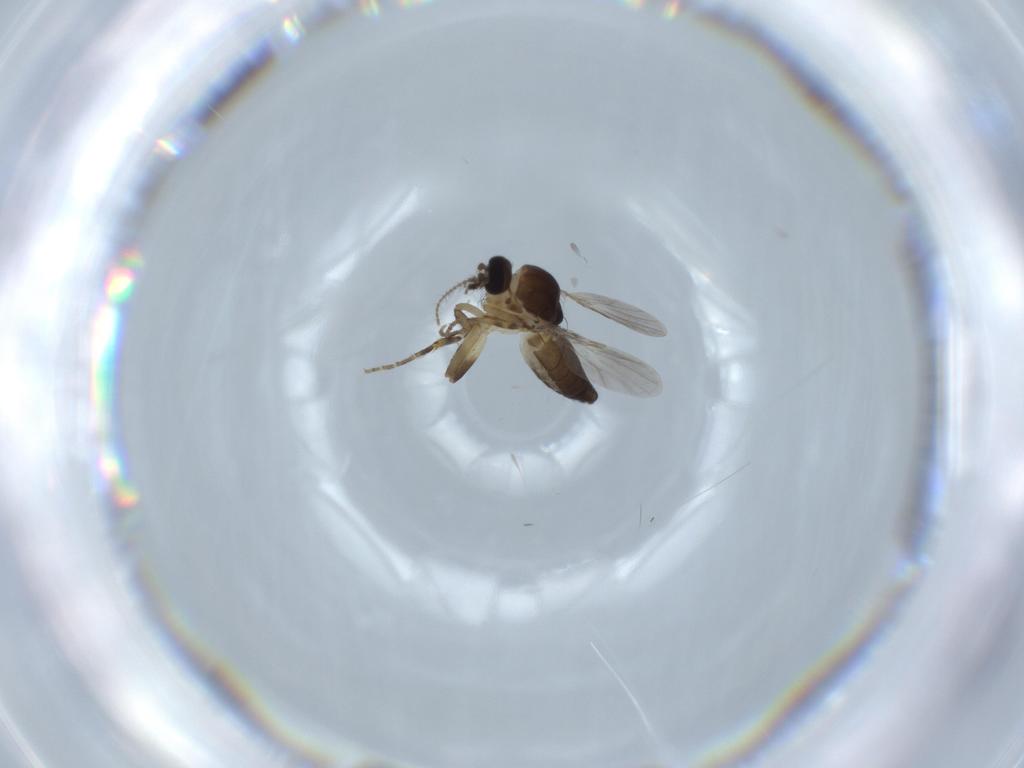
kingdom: Animalia
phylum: Arthropoda
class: Insecta
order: Diptera
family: Ceratopogonidae
